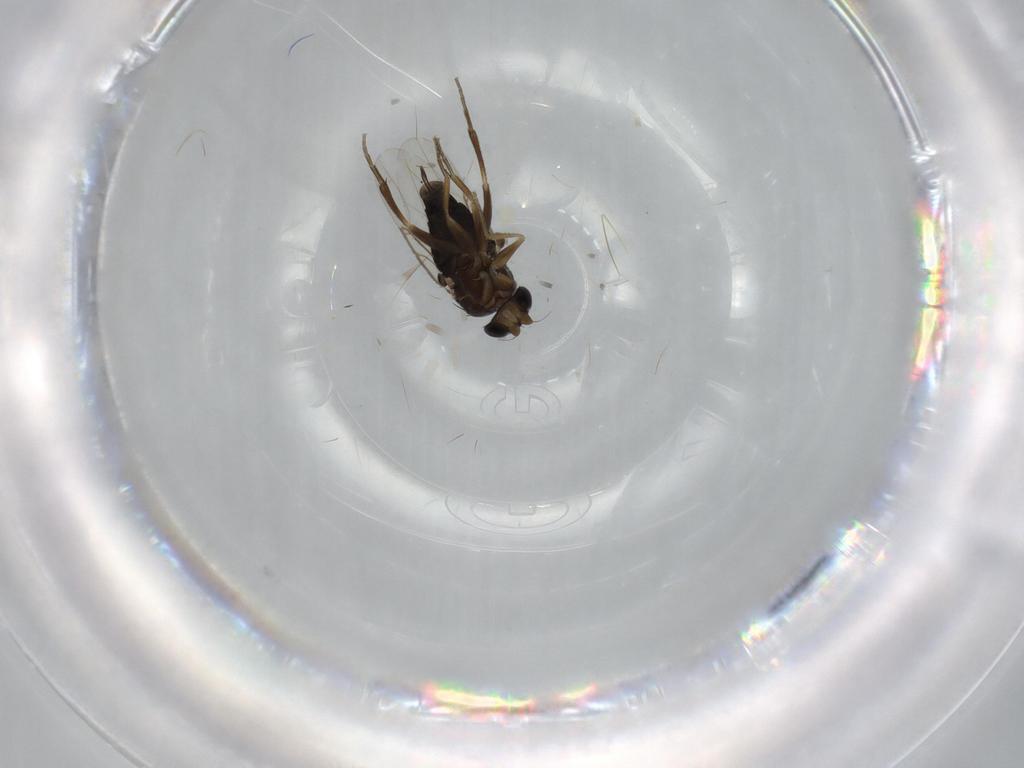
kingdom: Animalia
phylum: Arthropoda
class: Insecta
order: Diptera
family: Phoridae
